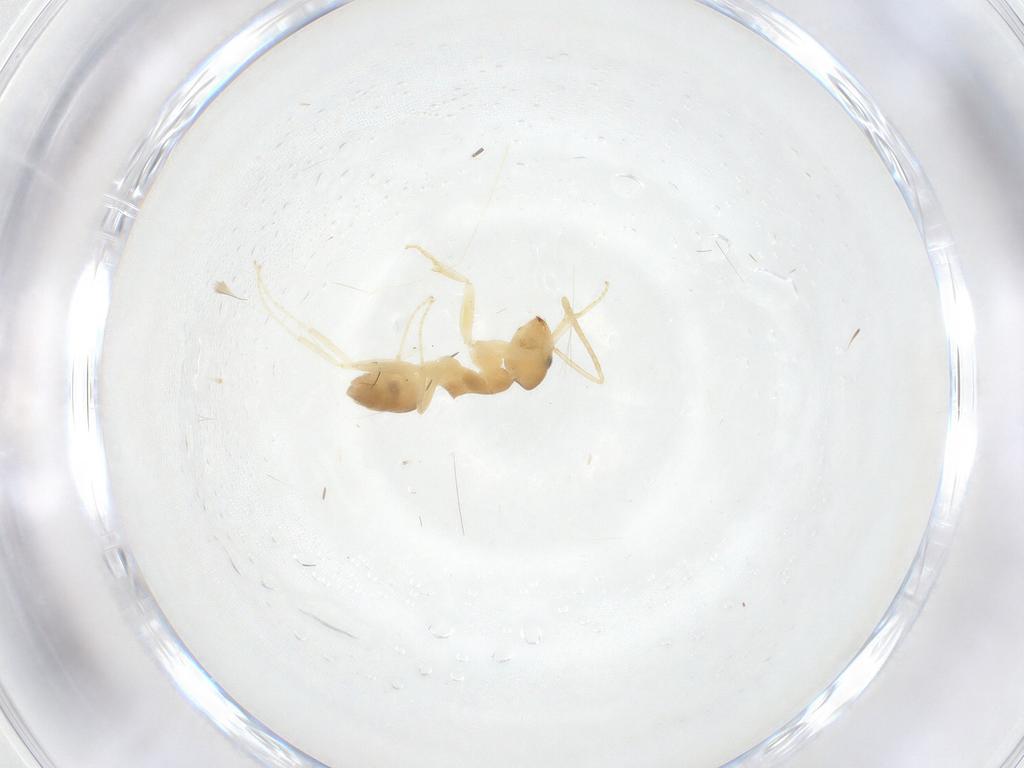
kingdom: Animalia
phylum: Arthropoda
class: Insecta
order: Hymenoptera
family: Formicidae
